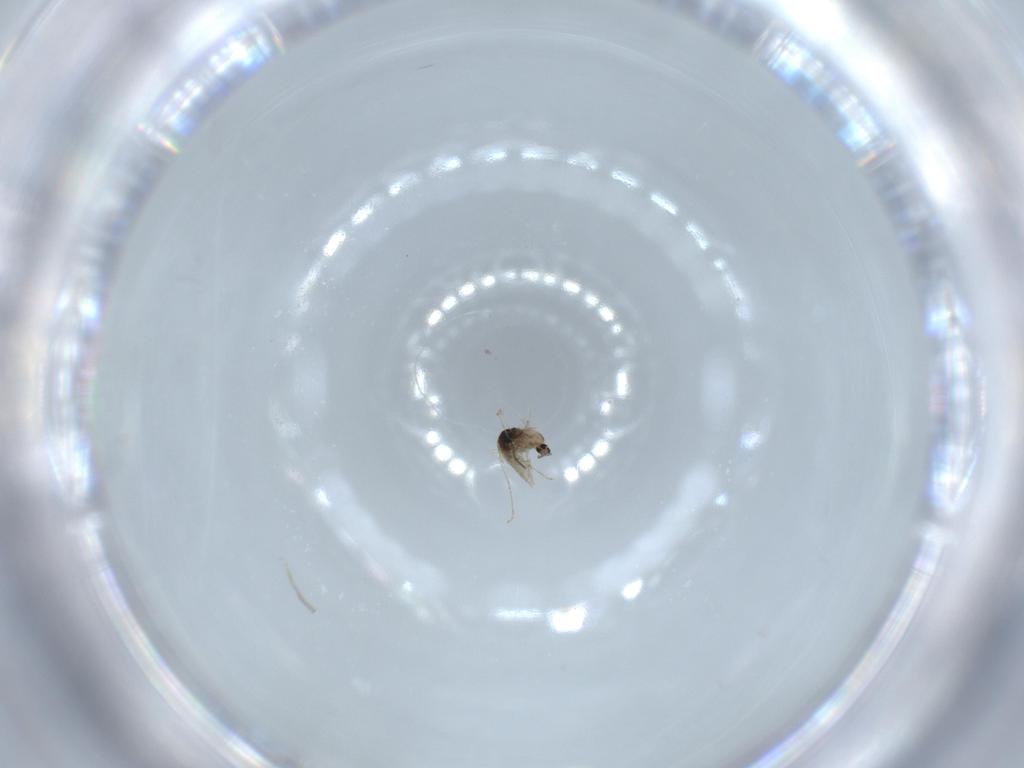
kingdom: Animalia
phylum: Arthropoda
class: Insecta
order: Diptera
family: Cecidomyiidae
